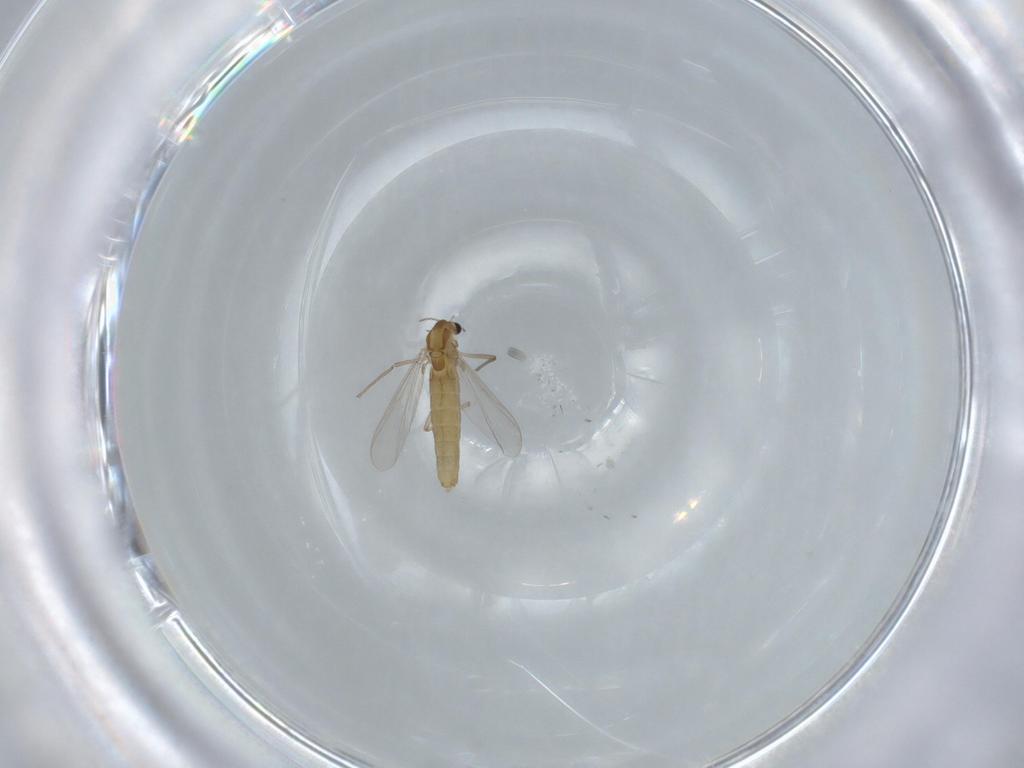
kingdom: Animalia
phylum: Arthropoda
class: Insecta
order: Diptera
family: Chironomidae
